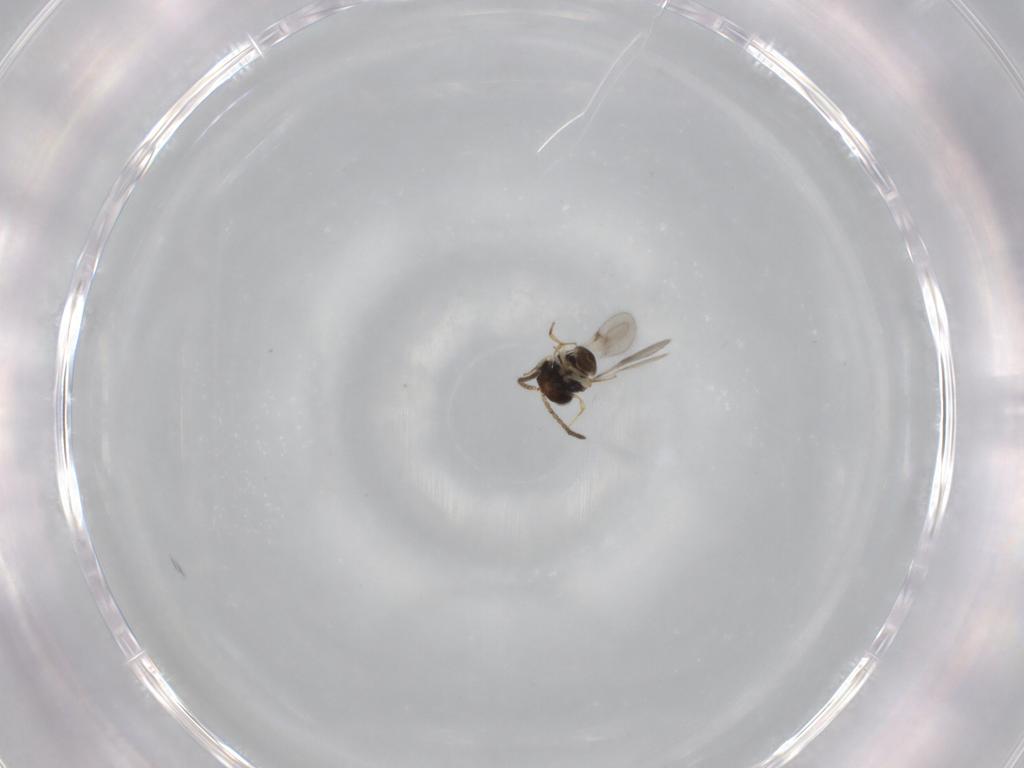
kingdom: Animalia
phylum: Arthropoda
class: Insecta
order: Hymenoptera
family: Scelionidae
